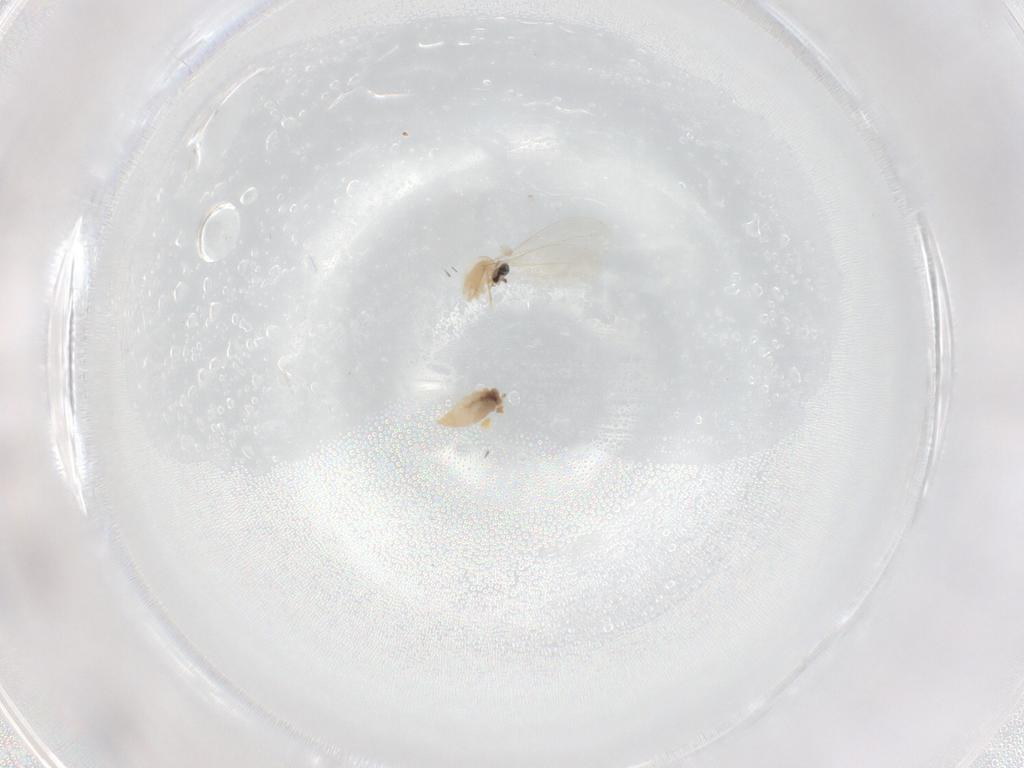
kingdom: Animalia
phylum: Arthropoda
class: Insecta
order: Diptera
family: Cecidomyiidae
